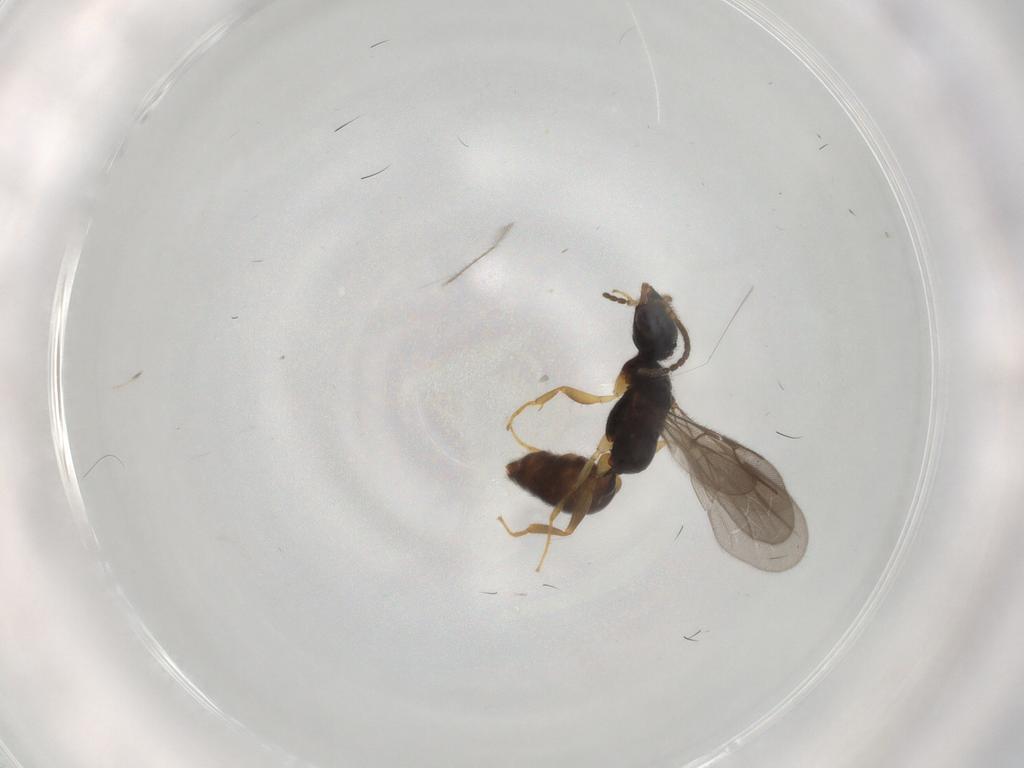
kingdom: Animalia
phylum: Arthropoda
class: Insecta
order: Hymenoptera
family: Bethylidae
